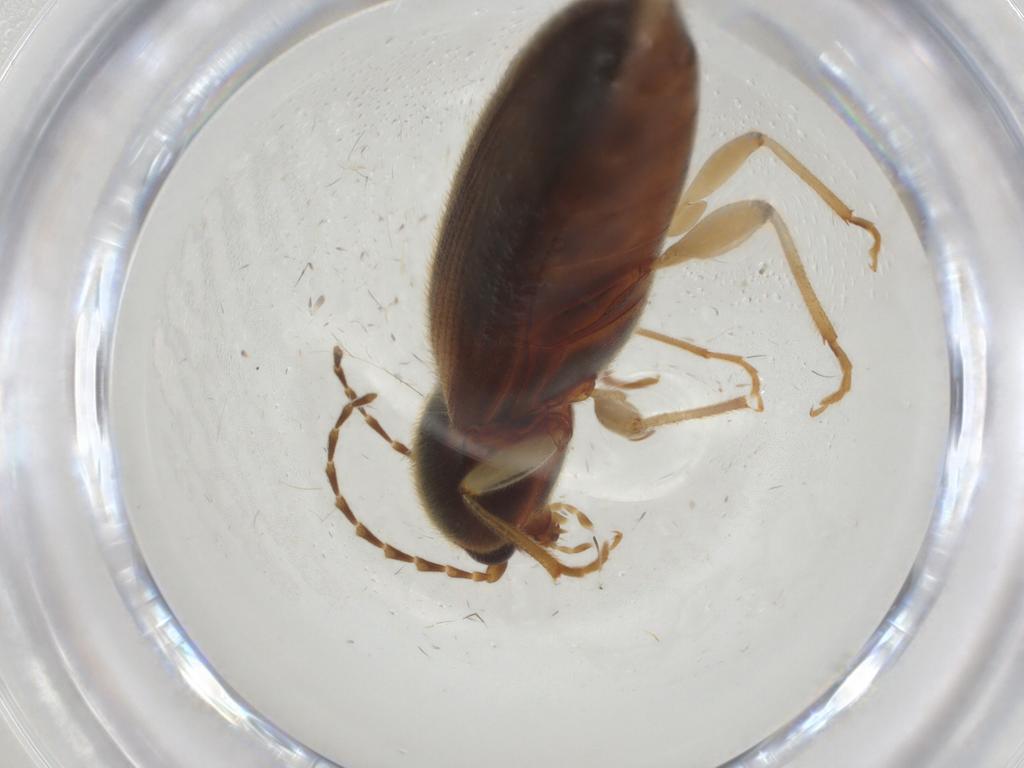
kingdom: Animalia
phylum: Arthropoda
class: Insecta
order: Coleoptera
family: Elateridae
